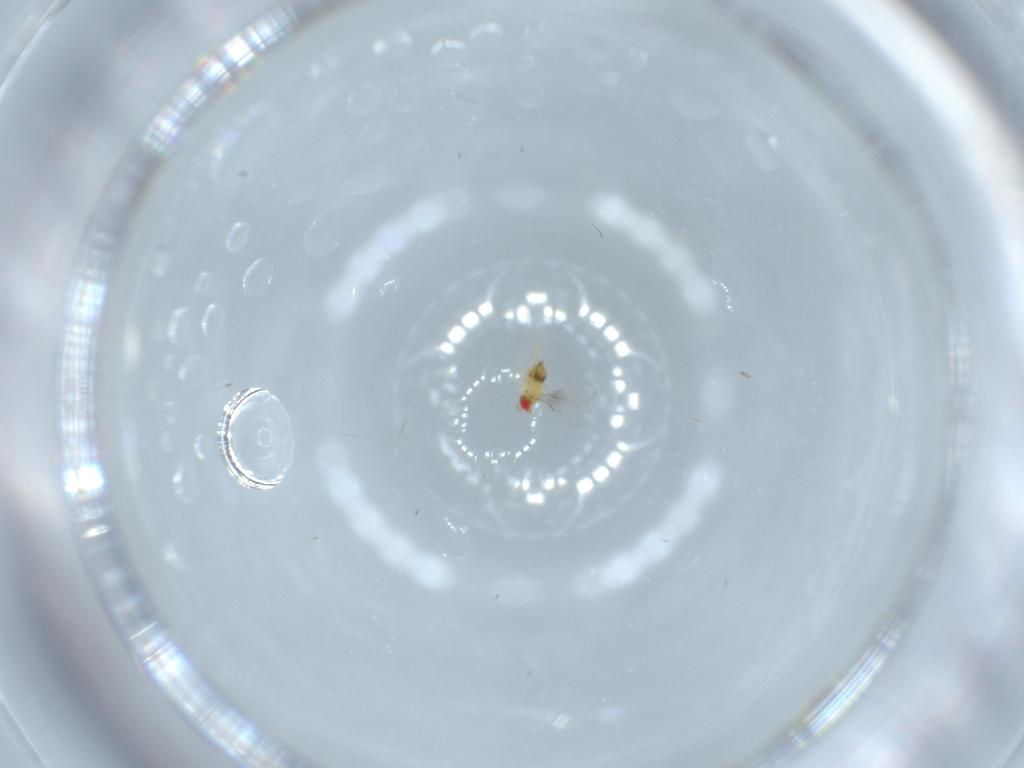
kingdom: Animalia
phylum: Arthropoda
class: Insecta
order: Hymenoptera
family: Trichogrammatidae
